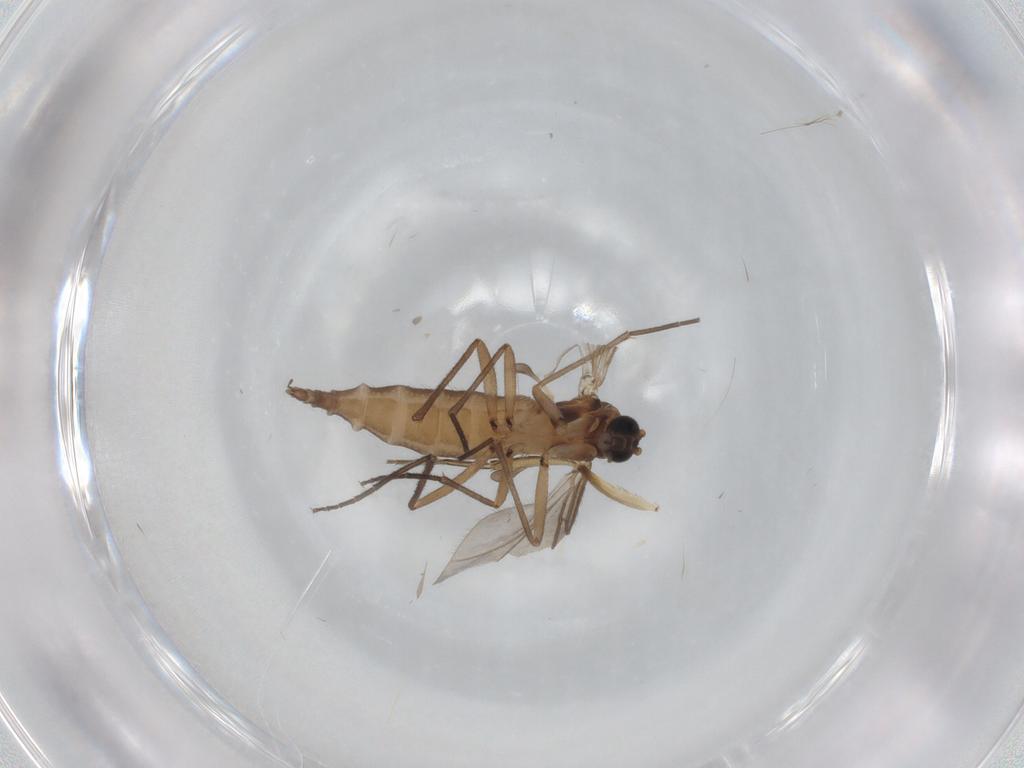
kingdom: Animalia
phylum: Arthropoda
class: Insecta
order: Diptera
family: Sciaridae
